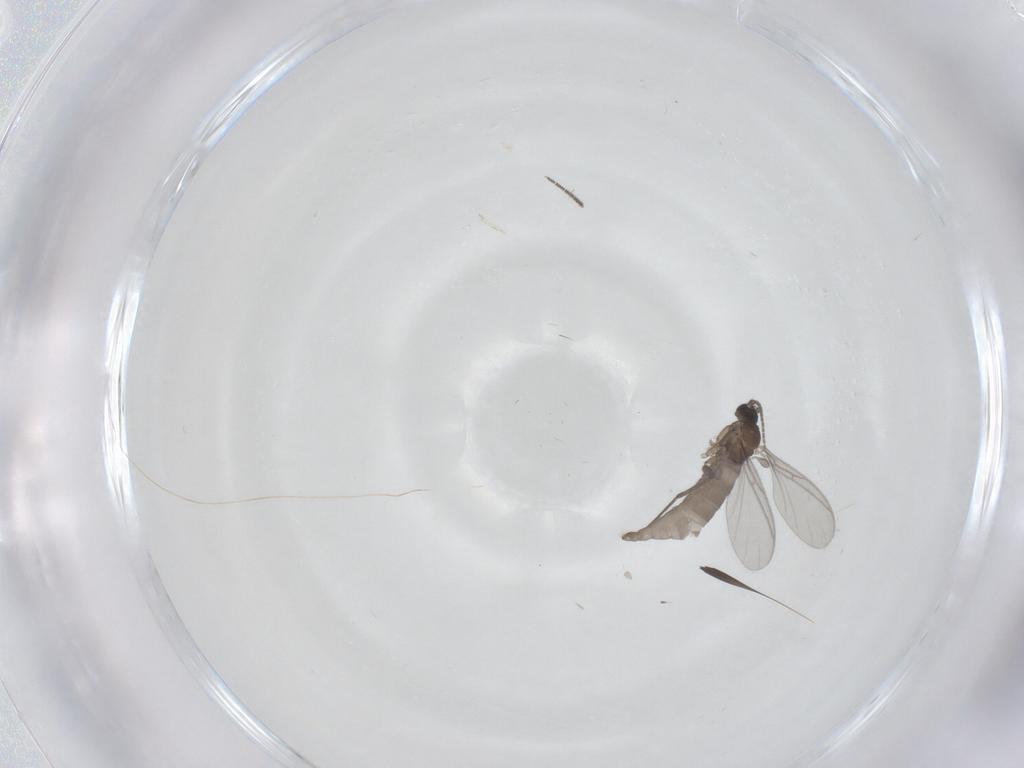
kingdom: Animalia
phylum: Arthropoda
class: Insecta
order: Diptera
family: Sciaridae
